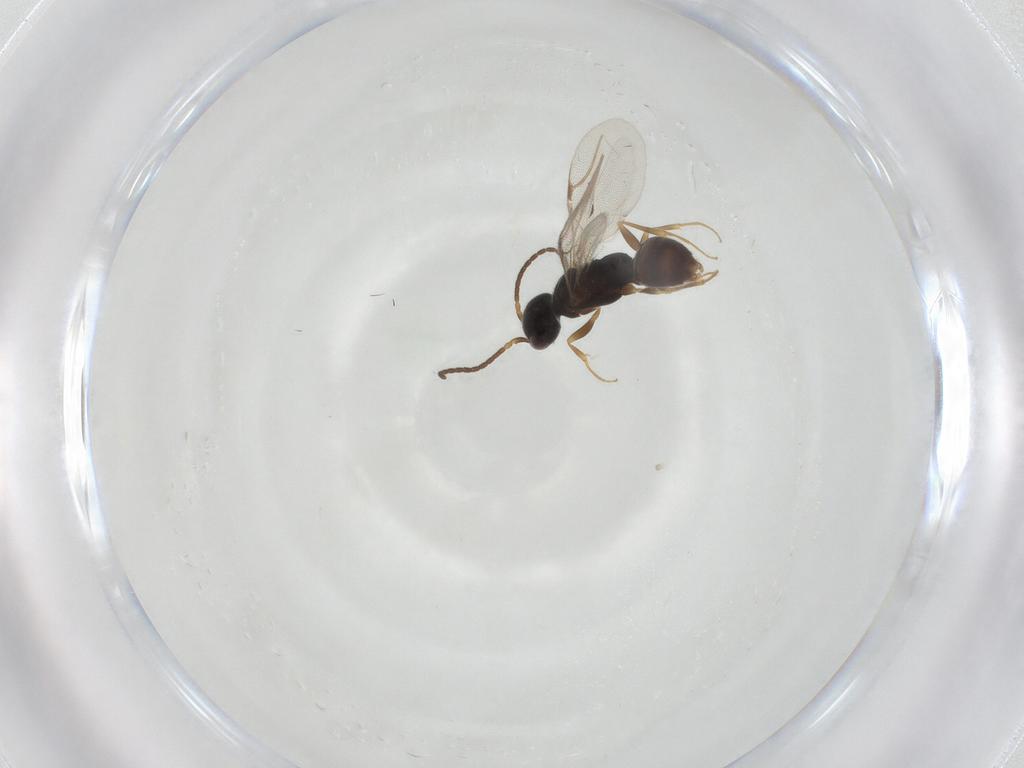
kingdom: Animalia
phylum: Arthropoda
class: Insecta
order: Hymenoptera
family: Bethylidae
